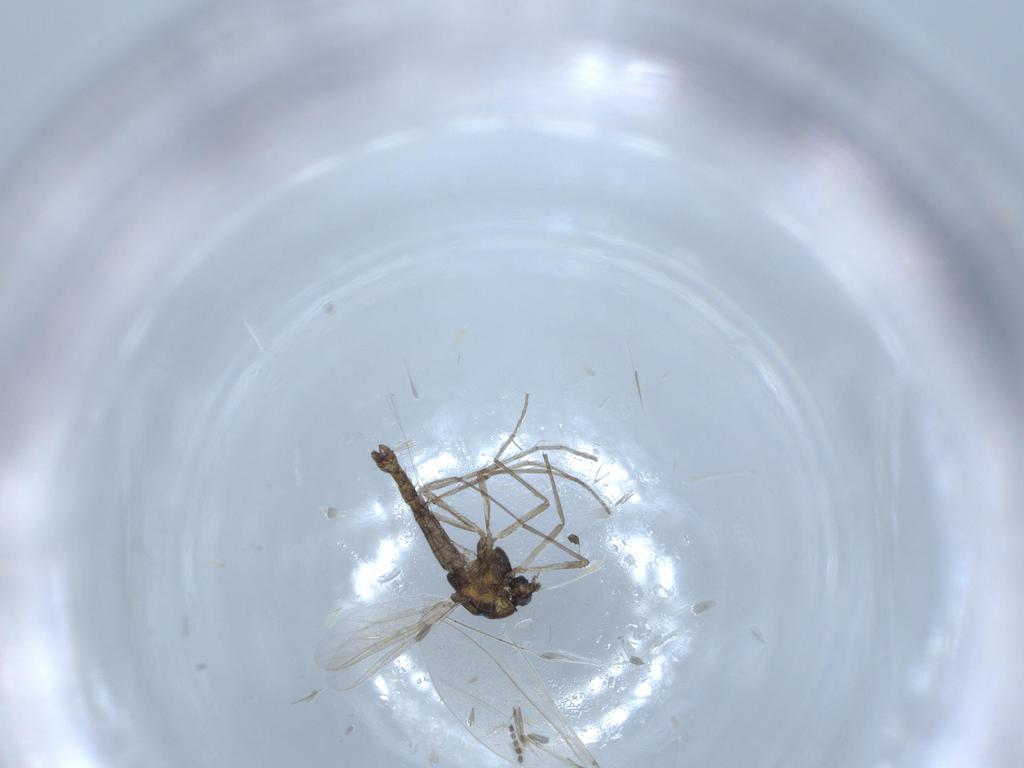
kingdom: Animalia
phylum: Arthropoda
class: Insecta
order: Diptera
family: Chironomidae
